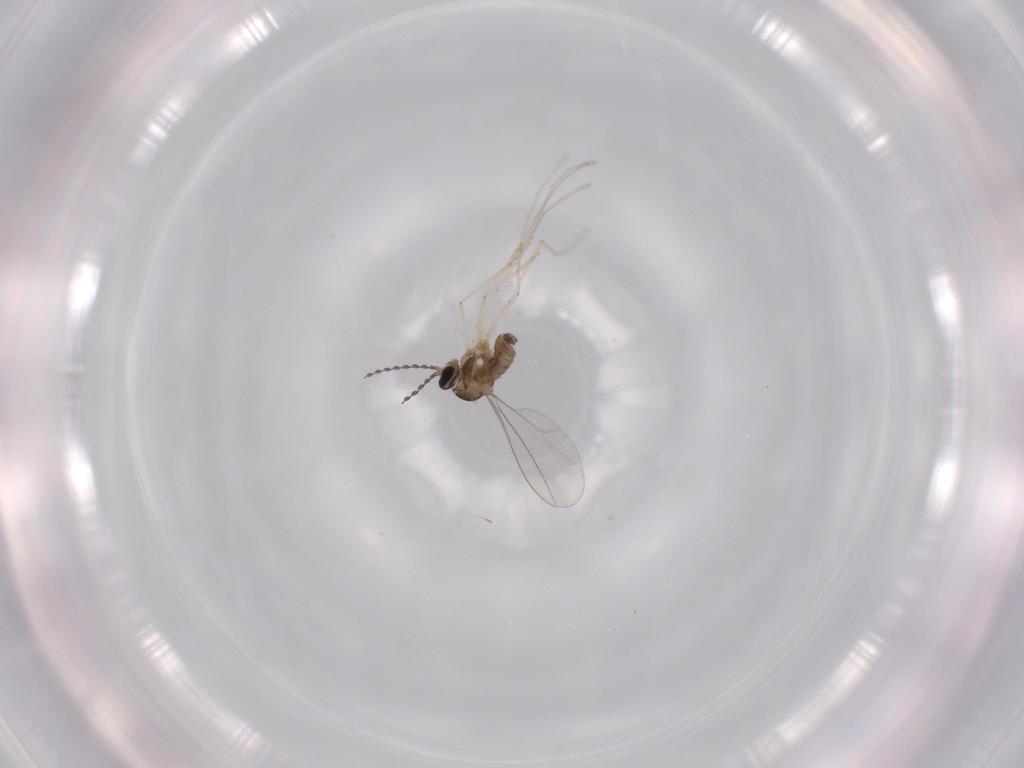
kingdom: Animalia
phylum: Arthropoda
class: Insecta
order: Diptera
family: Cecidomyiidae
